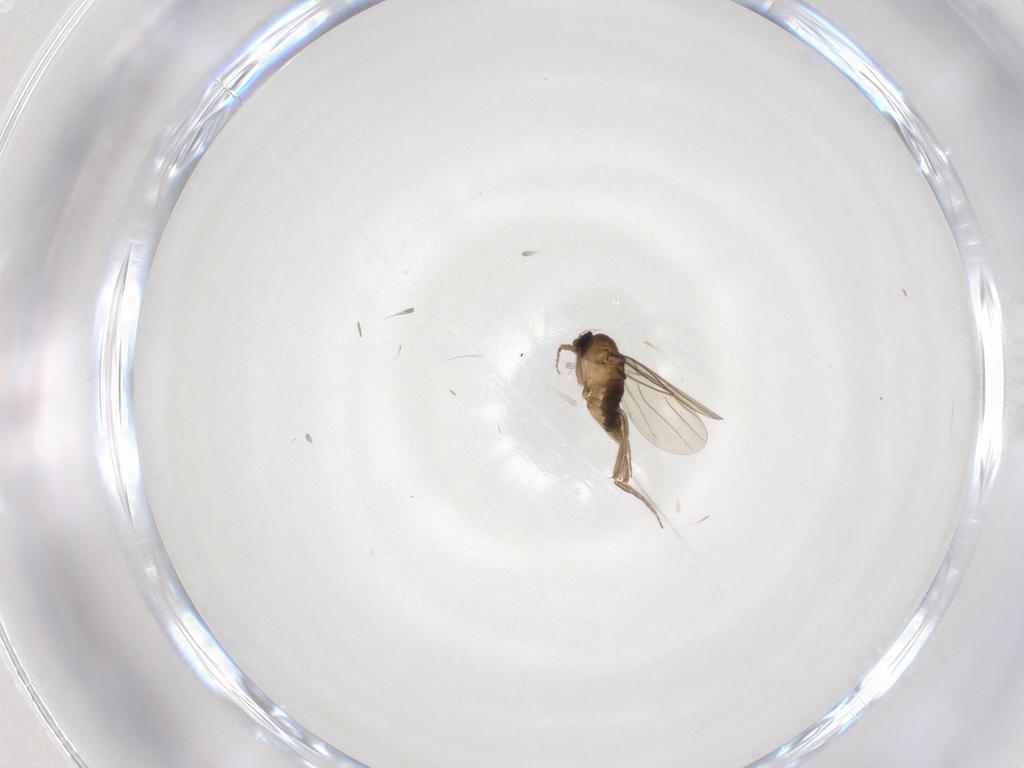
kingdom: Animalia
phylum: Arthropoda
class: Insecta
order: Diptera
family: Phoridae
